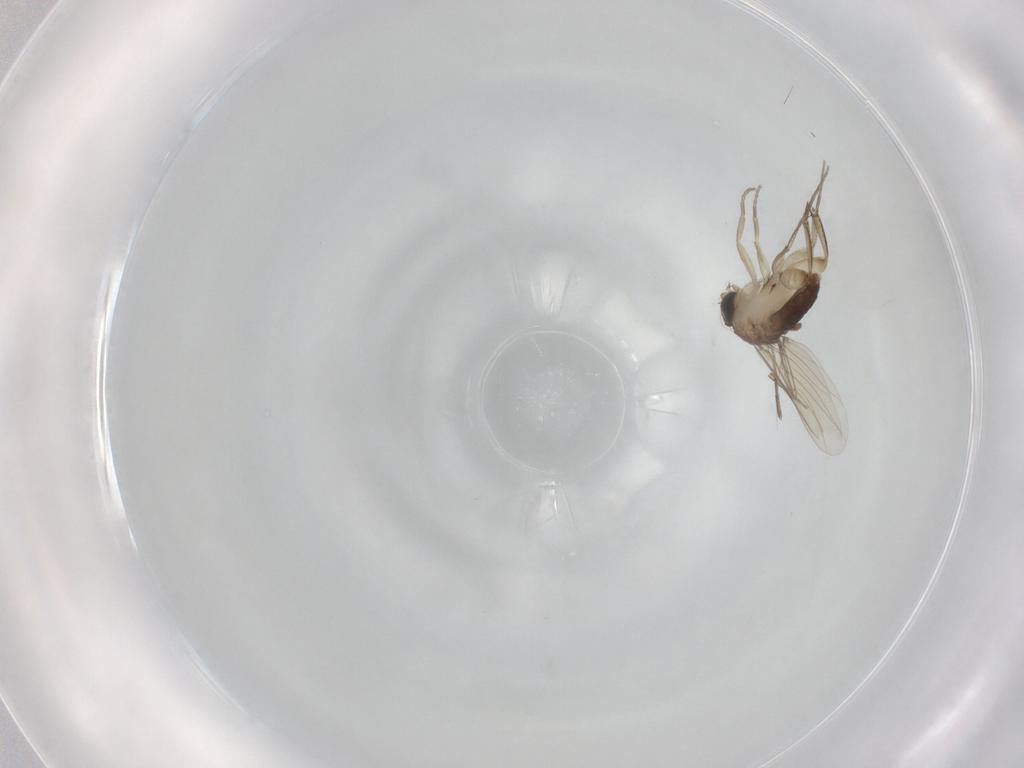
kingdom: Animalia
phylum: Arthropoda
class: Insecta
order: Diptera
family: Phoridae
